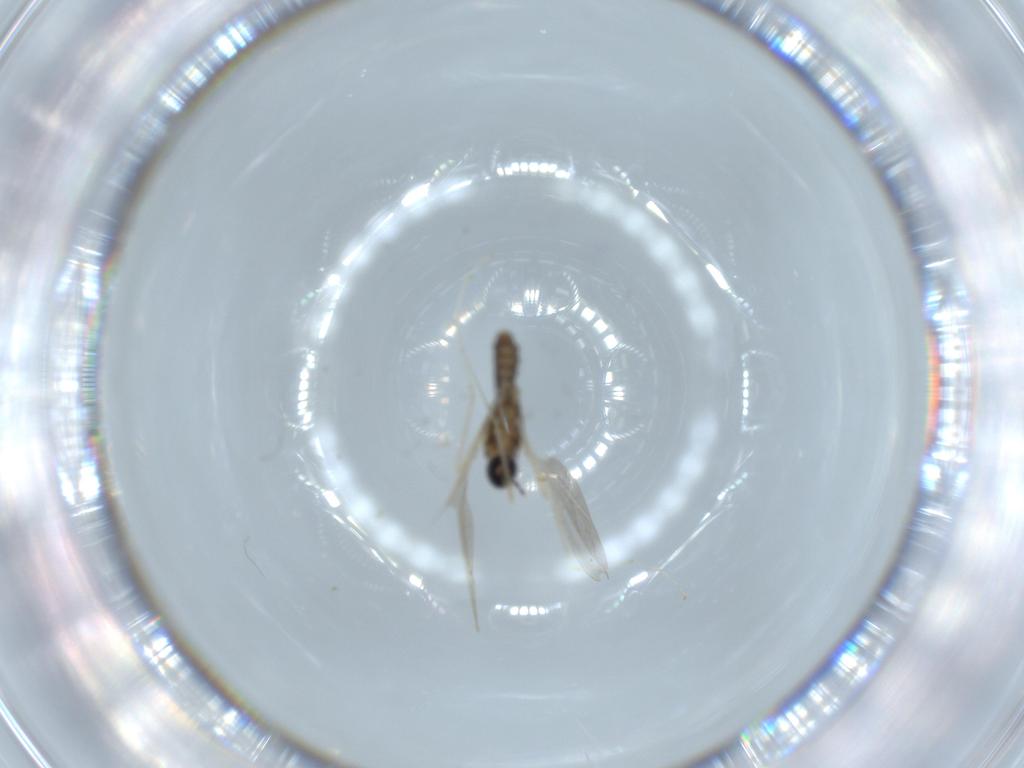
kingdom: Animalia
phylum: Arthropoda
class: Insecta
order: Diptera
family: Cecidomyiidae
